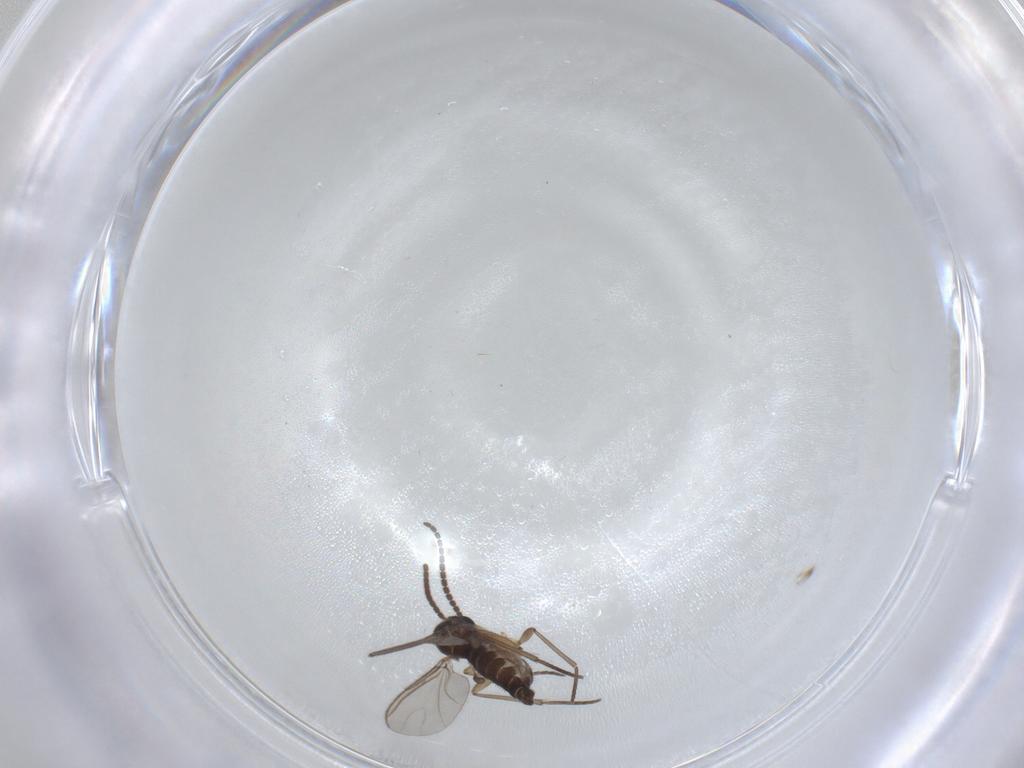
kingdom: Animalia
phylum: Arthropoda
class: Insecta
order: Diptera
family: Sciaridae
